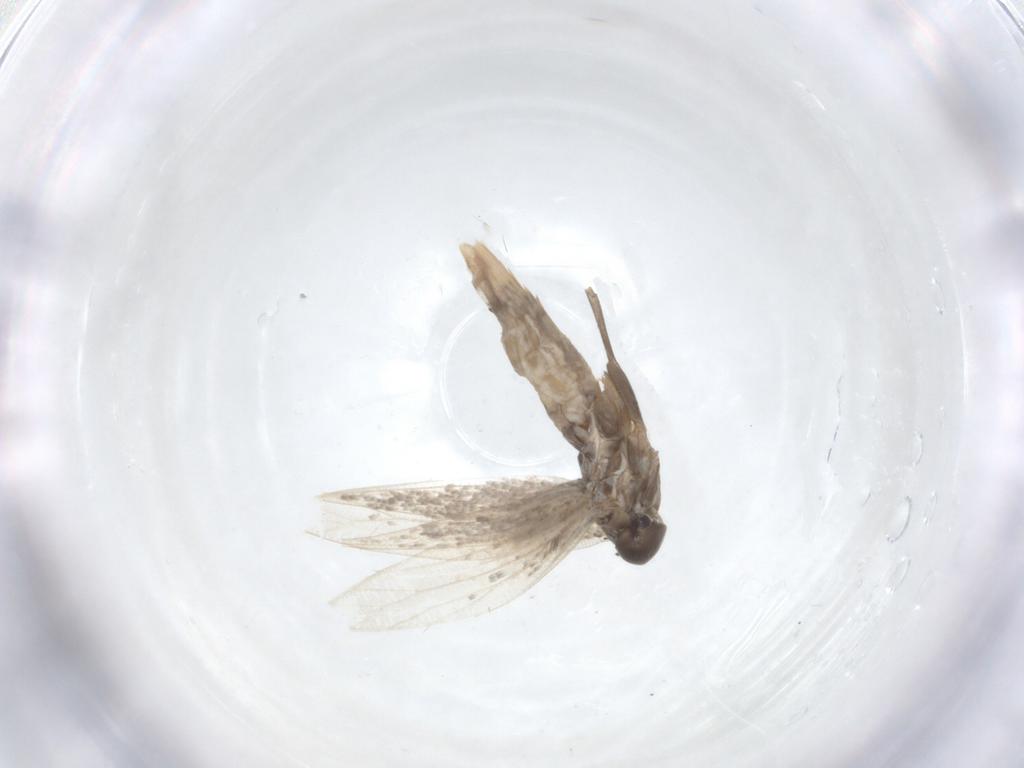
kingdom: Animalia
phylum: Arthropoda
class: Insecta
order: Lepidoptera
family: Elachistidae
